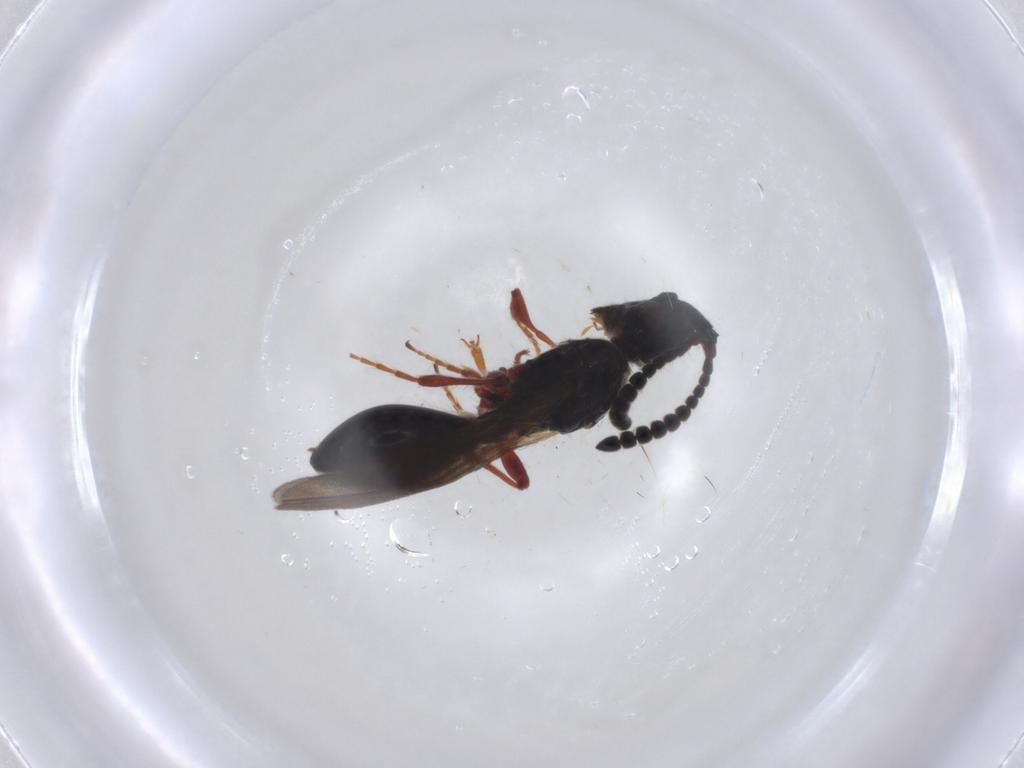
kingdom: Animalia
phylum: Arthropoda
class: Insecta
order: Hymenoptera
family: Diapriidae
